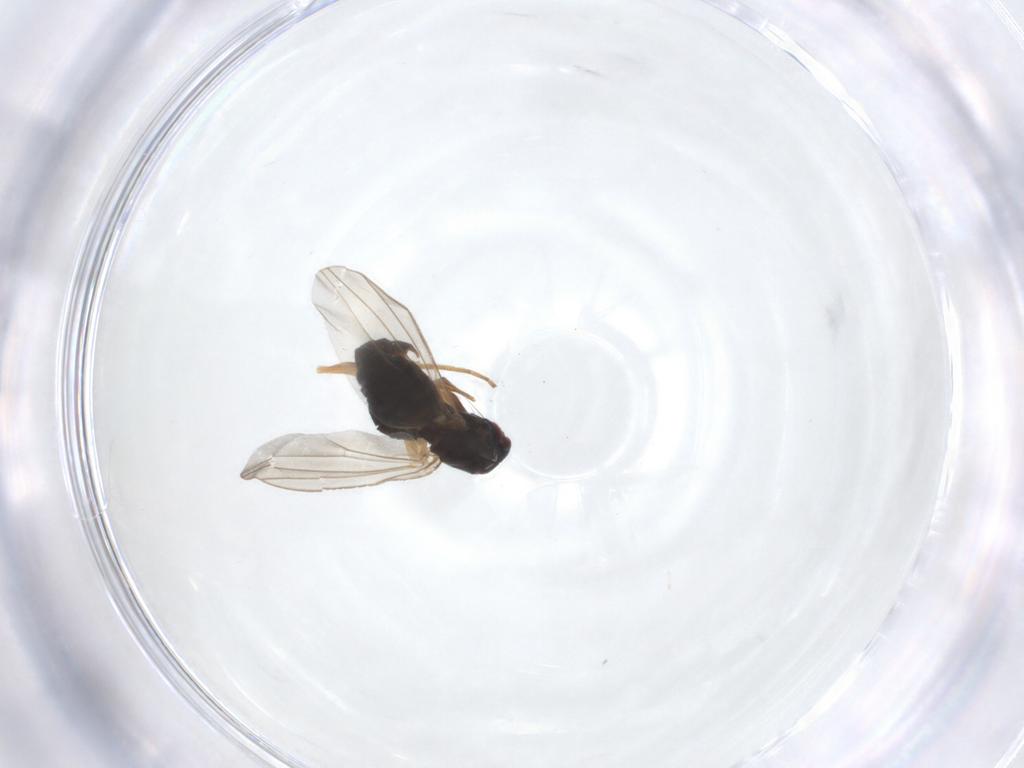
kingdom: Animalia
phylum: Arthropoda
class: Insecta
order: Diptera
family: Dolichopodidae
